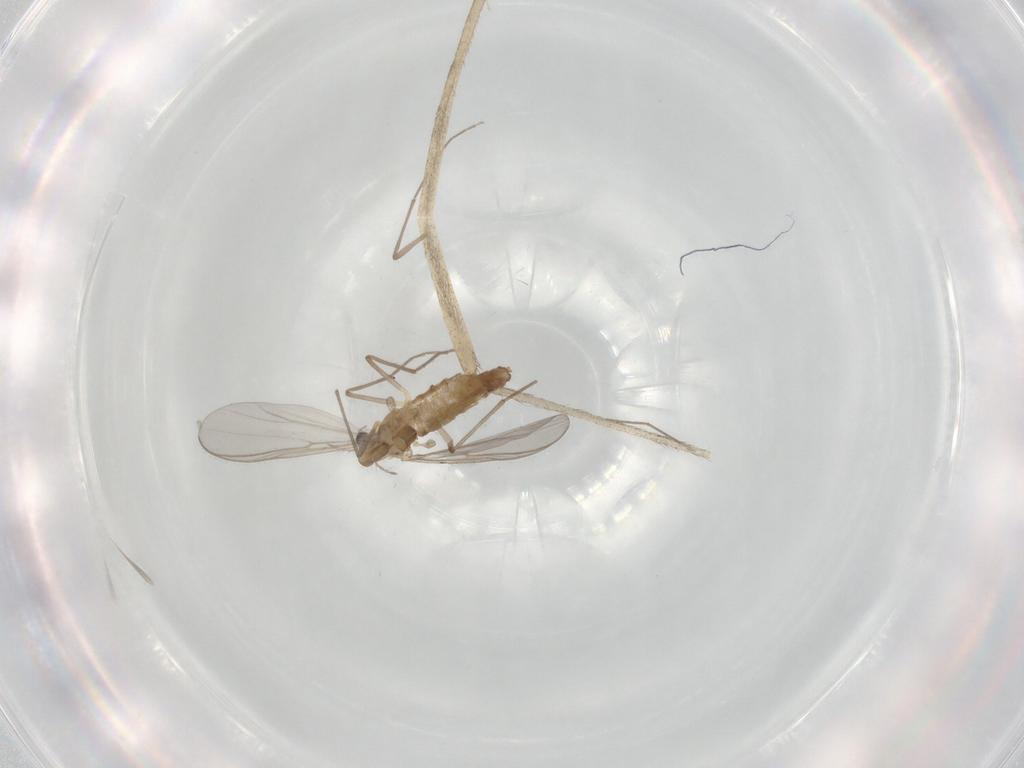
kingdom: Animalia
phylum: Arthropoda
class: Insecta
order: Diptera
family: Chironomidae
